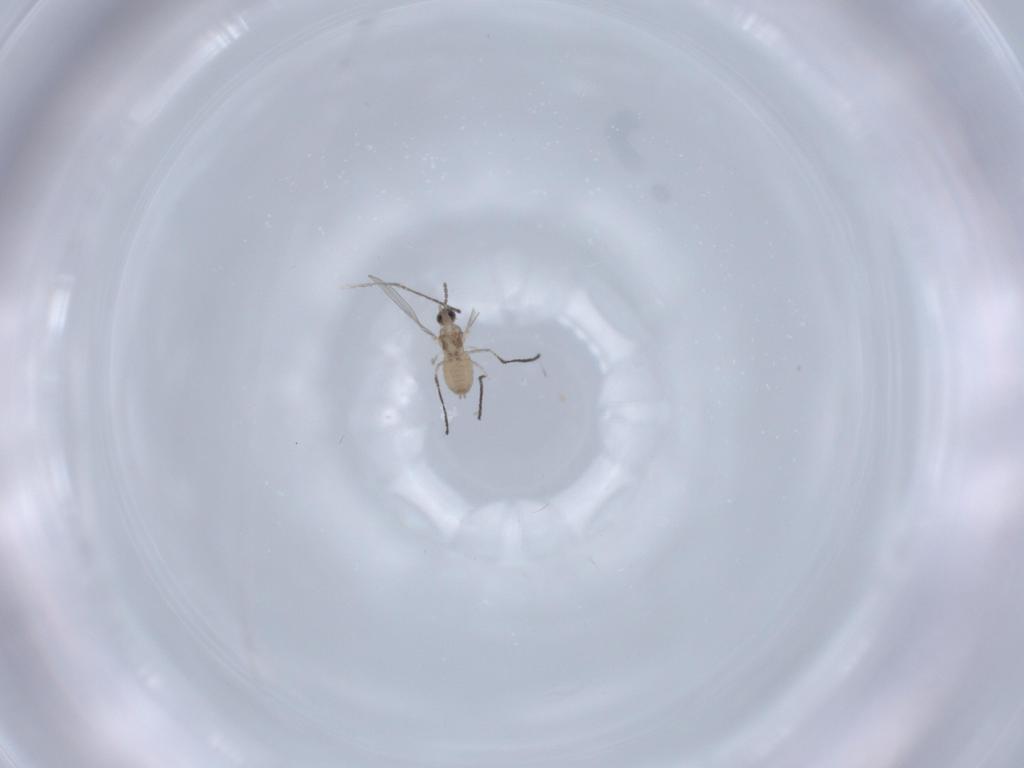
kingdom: Animalia
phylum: Arthropoda
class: Insecta
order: Diptera
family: Cecidomyiidae
